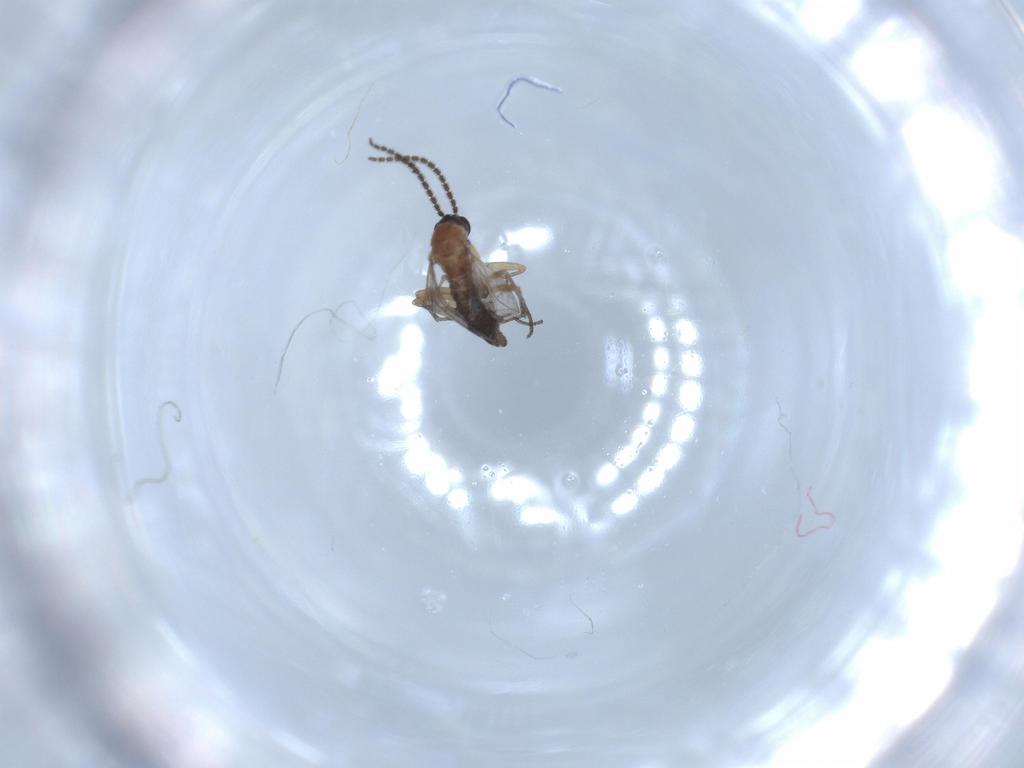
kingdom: Animalia
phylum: Arthropoda
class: Insecta
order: Diptera
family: Sciaridae
